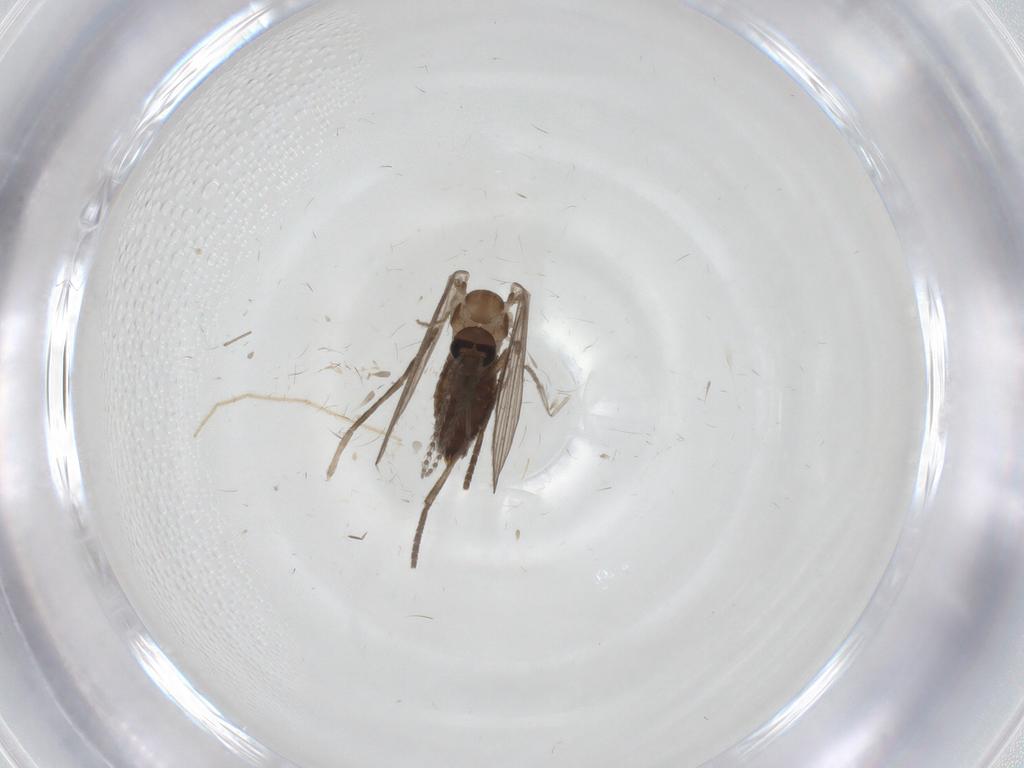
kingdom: Animalia
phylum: Arthropoda
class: Insecta
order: Diptera
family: Psychodidae
